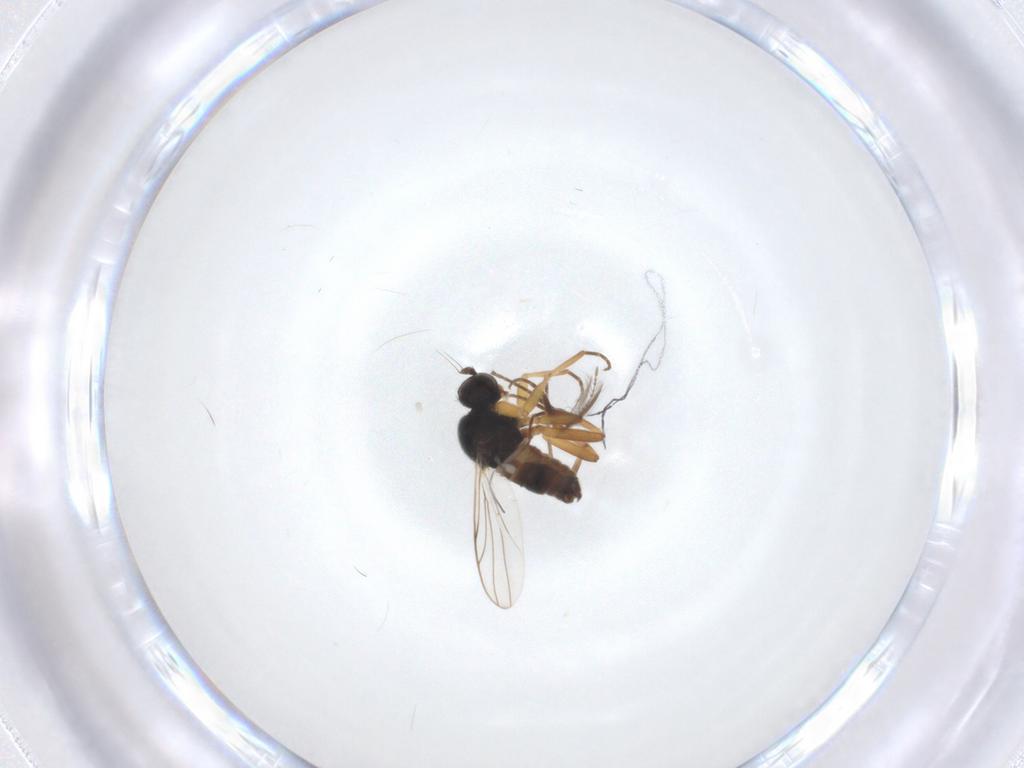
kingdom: Animalia
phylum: Arthropoda
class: Insecta
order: Diptera
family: Hybotidae
